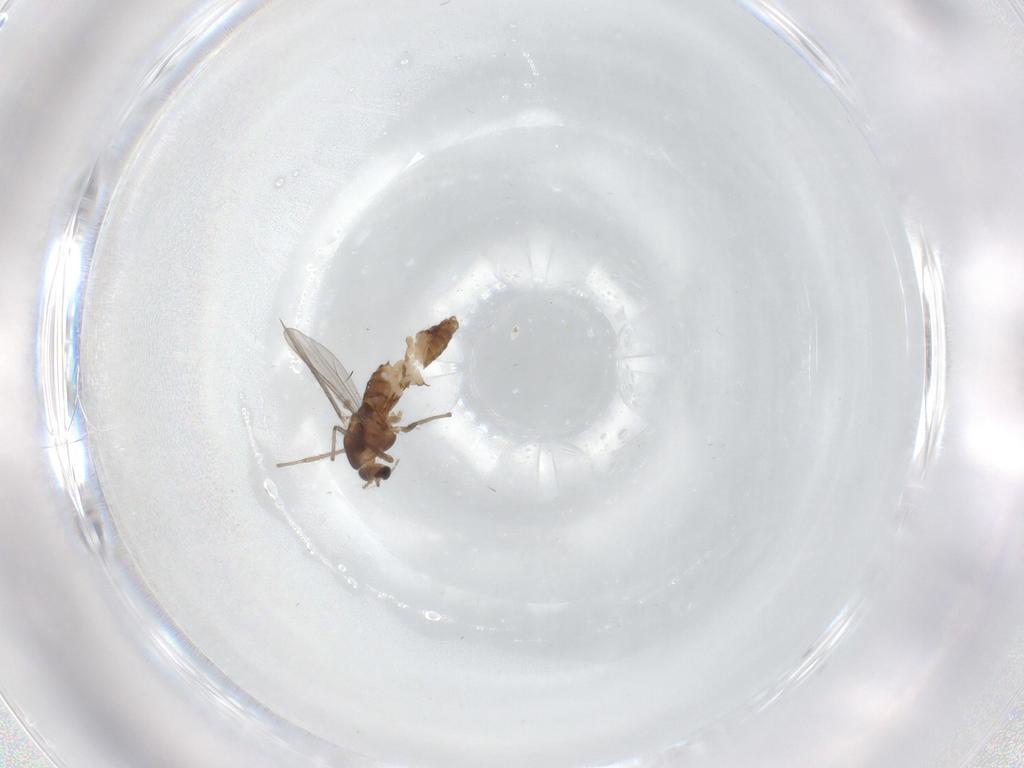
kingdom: Animalia
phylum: Arthropoda
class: Insecta
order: Diptera
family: Chironomidae
